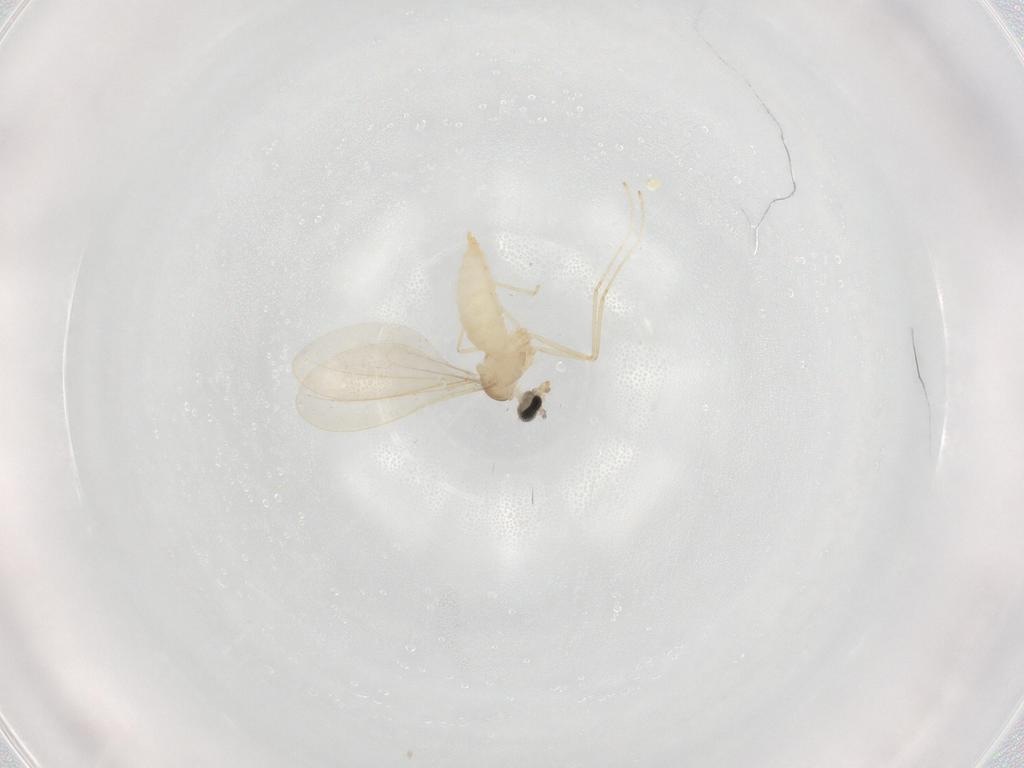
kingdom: Animalia
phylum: Arthropoda
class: Insecta
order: Diptera
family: Cecidomyiidae
